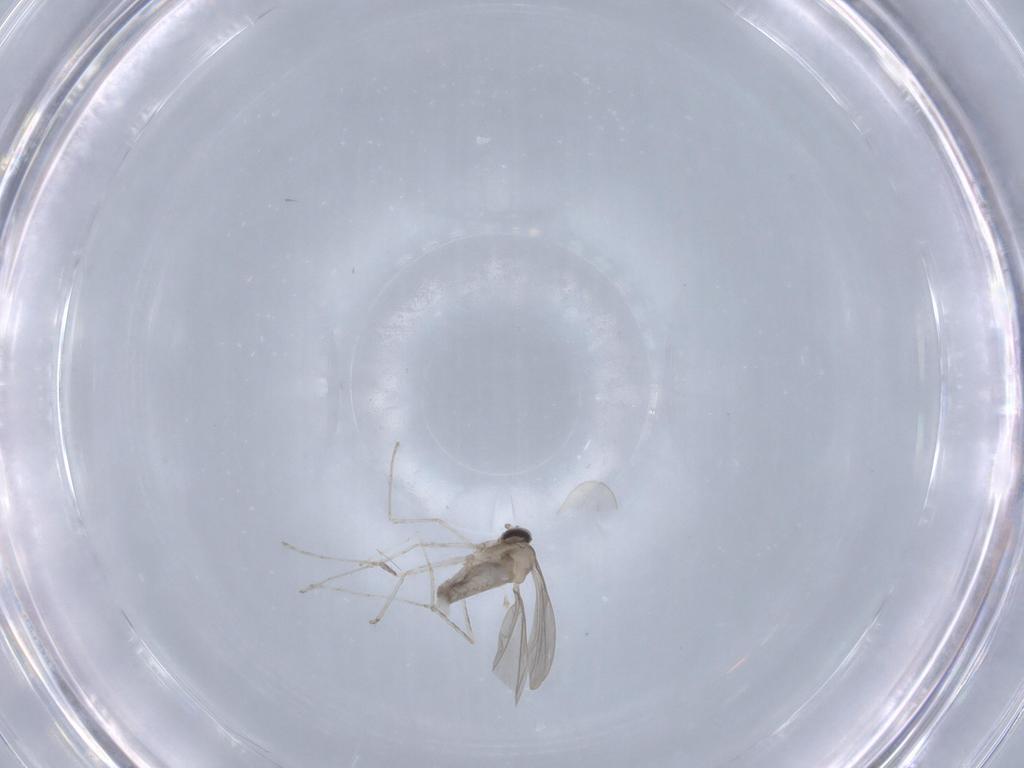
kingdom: Animalia
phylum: Arthropoda
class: Insecta
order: Diptera
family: Cecidomyiidae
